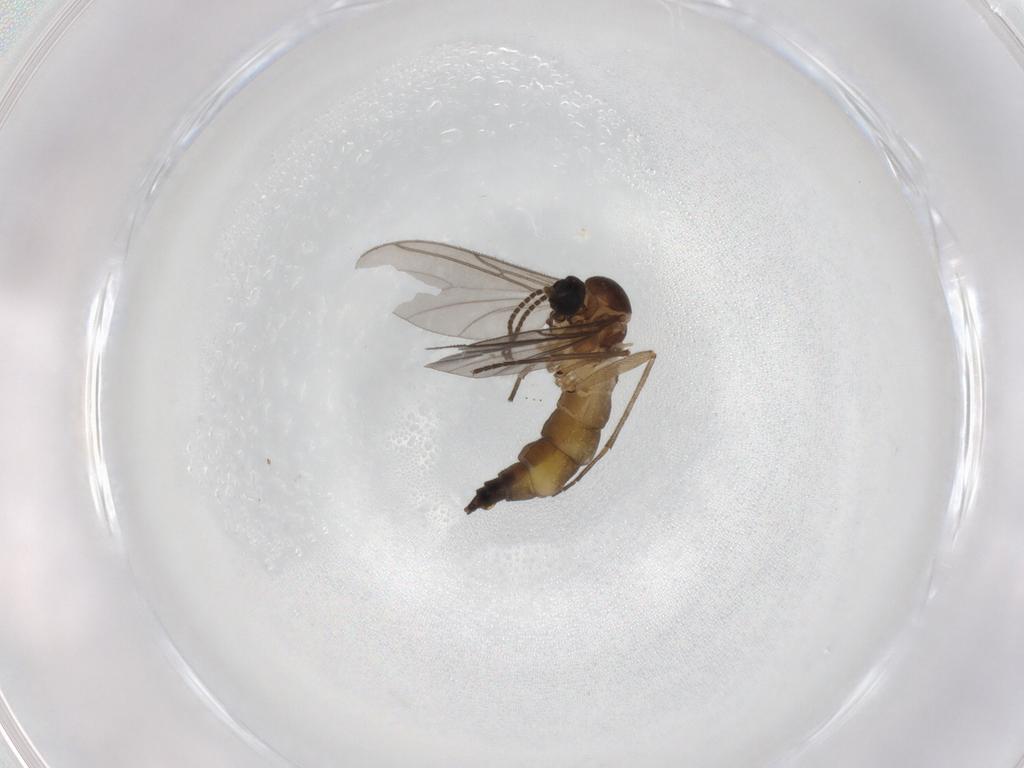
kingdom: Animalia
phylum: Arthropoda
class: Insecta
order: Diptera
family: Sciaridae
